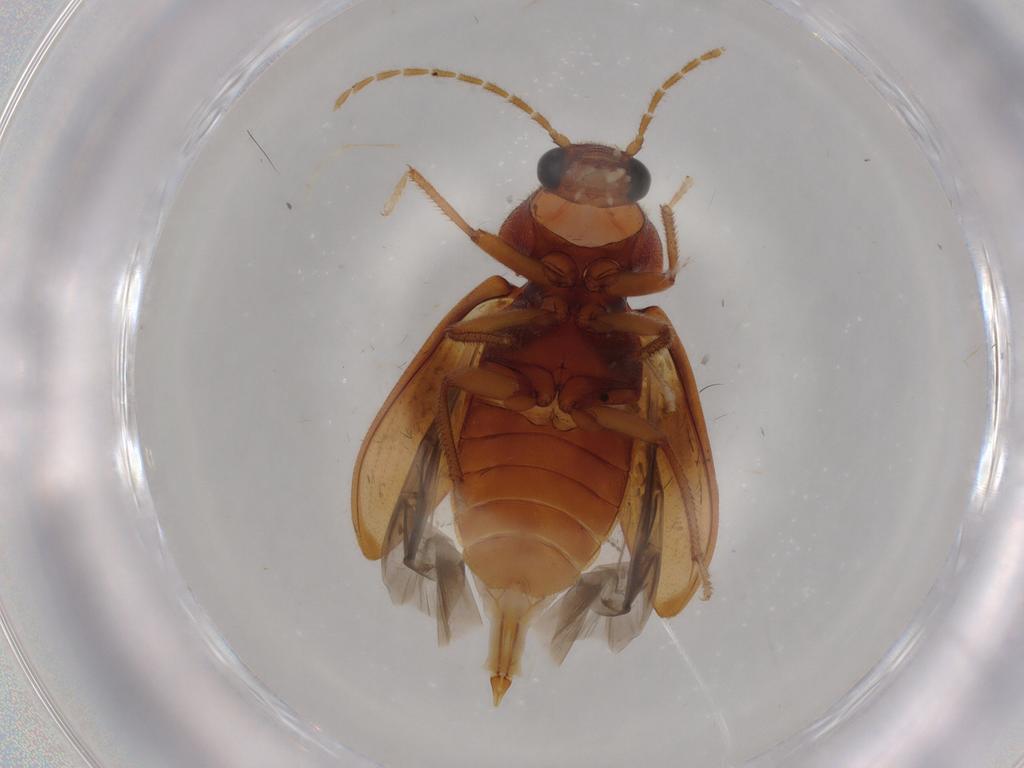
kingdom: Animalia
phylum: Arthropoda
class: Insecta
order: Coleoptera
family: Ptilodactylidae
